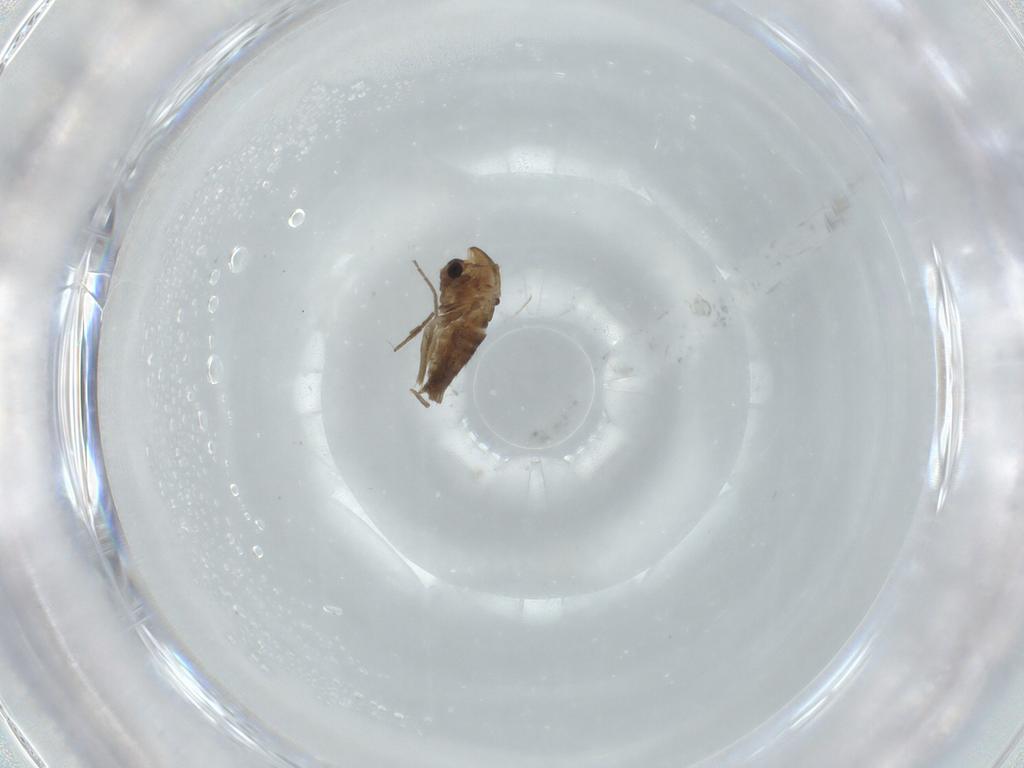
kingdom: Animalia
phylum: Arthropoda
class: Insecta
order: Diptera
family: Chironomidae
